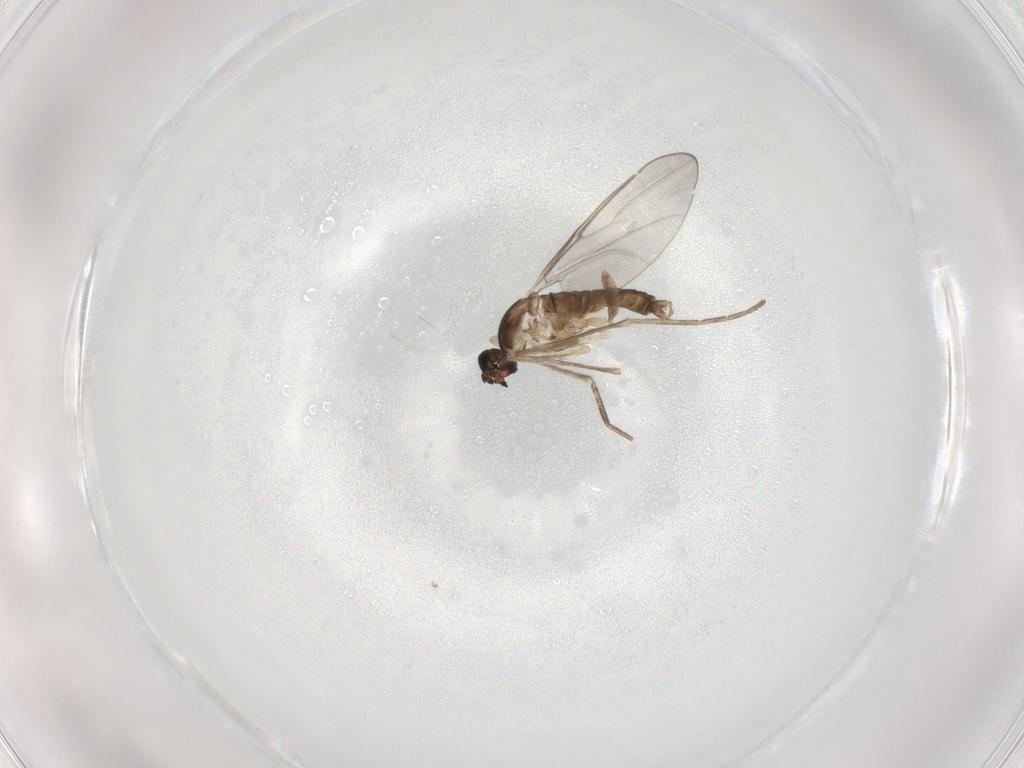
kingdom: Animalia
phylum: Arthropoda
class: Insecta
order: Diptera
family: Cecidomyiidae
